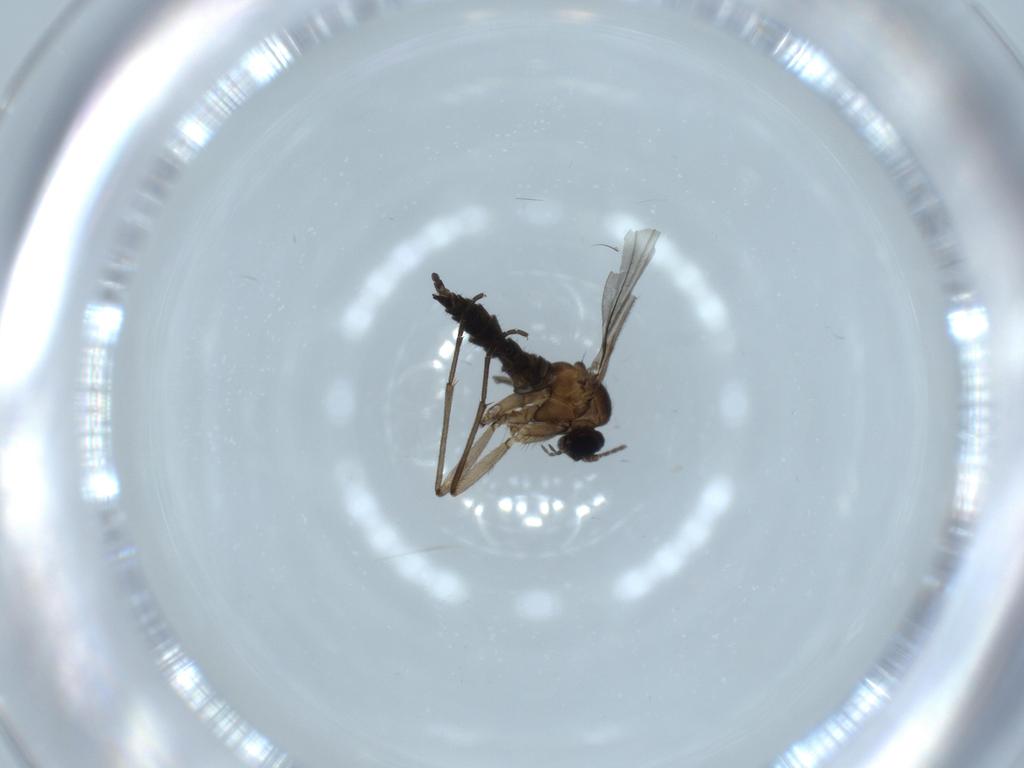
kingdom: Animalia
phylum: Arthropoda
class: Insecta
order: Diptera
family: Sciaridae
